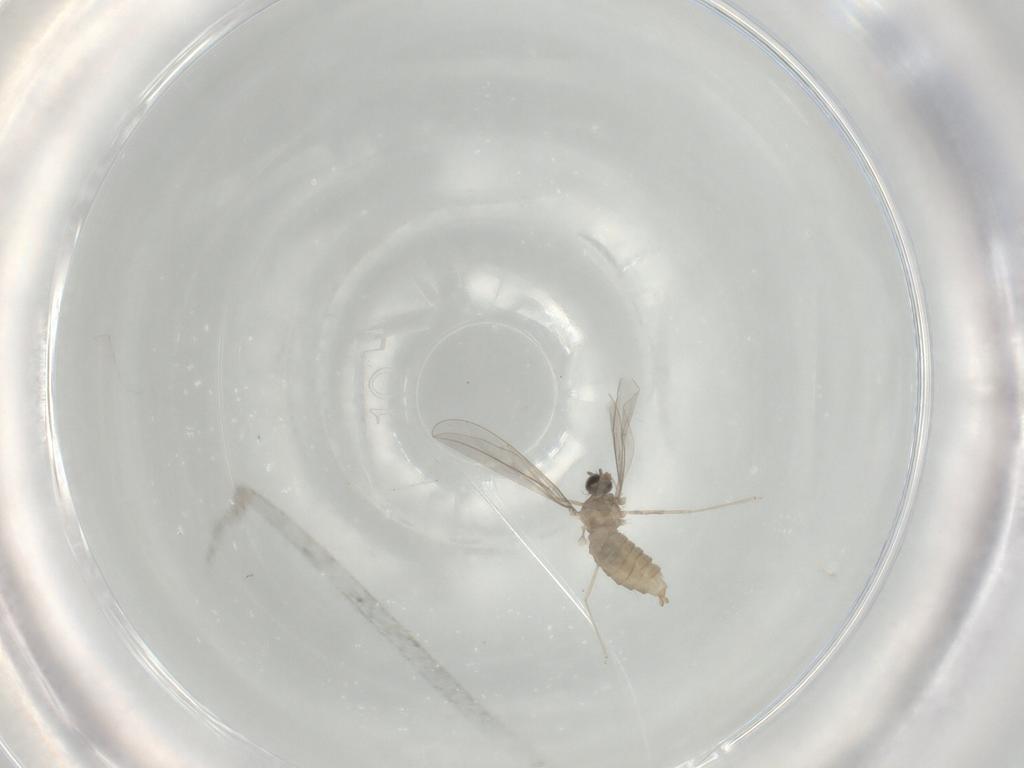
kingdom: Animalia
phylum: Arthropoda
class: Insecta
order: Diptera
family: Cecidomyiidae
